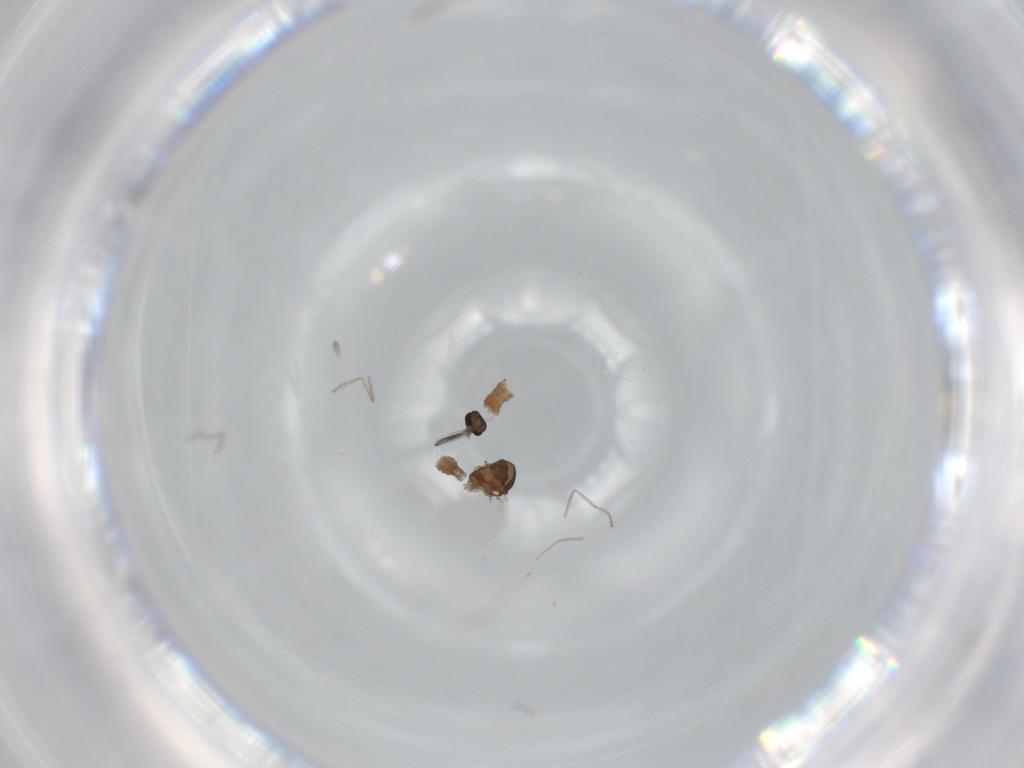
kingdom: Animalia
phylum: Arthropoda
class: Insecta
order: Diptera
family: Ceratopogonidae
